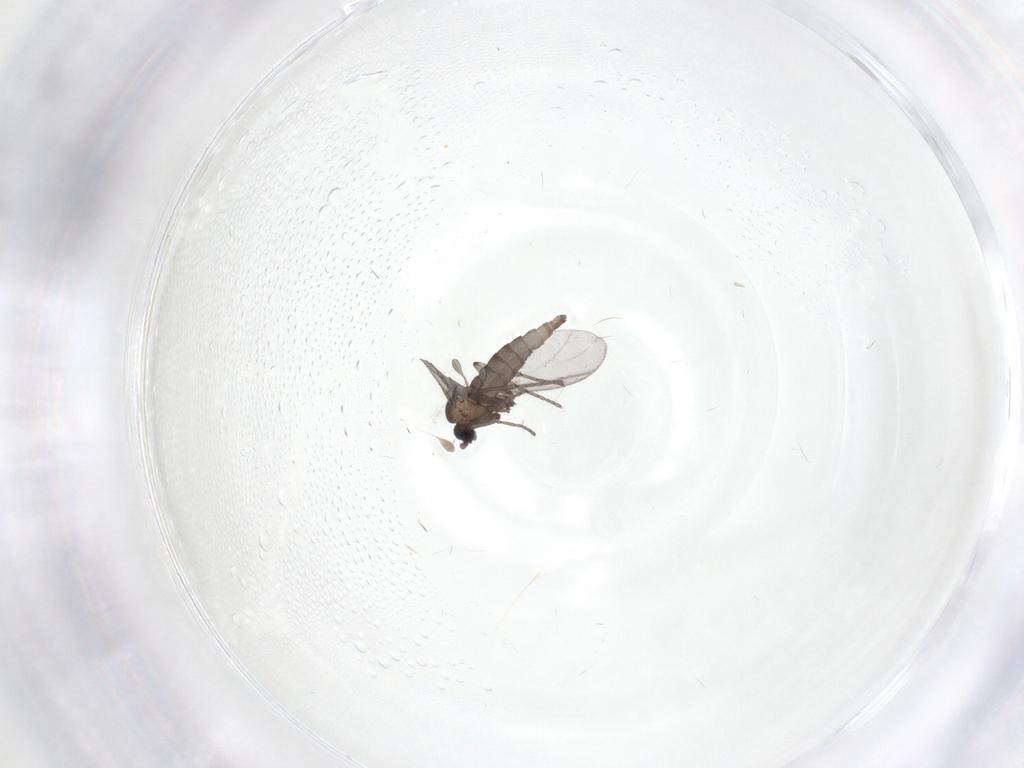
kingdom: Animalia
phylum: Arthropoda
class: Insecta
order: Diptera
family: Sciaridae
